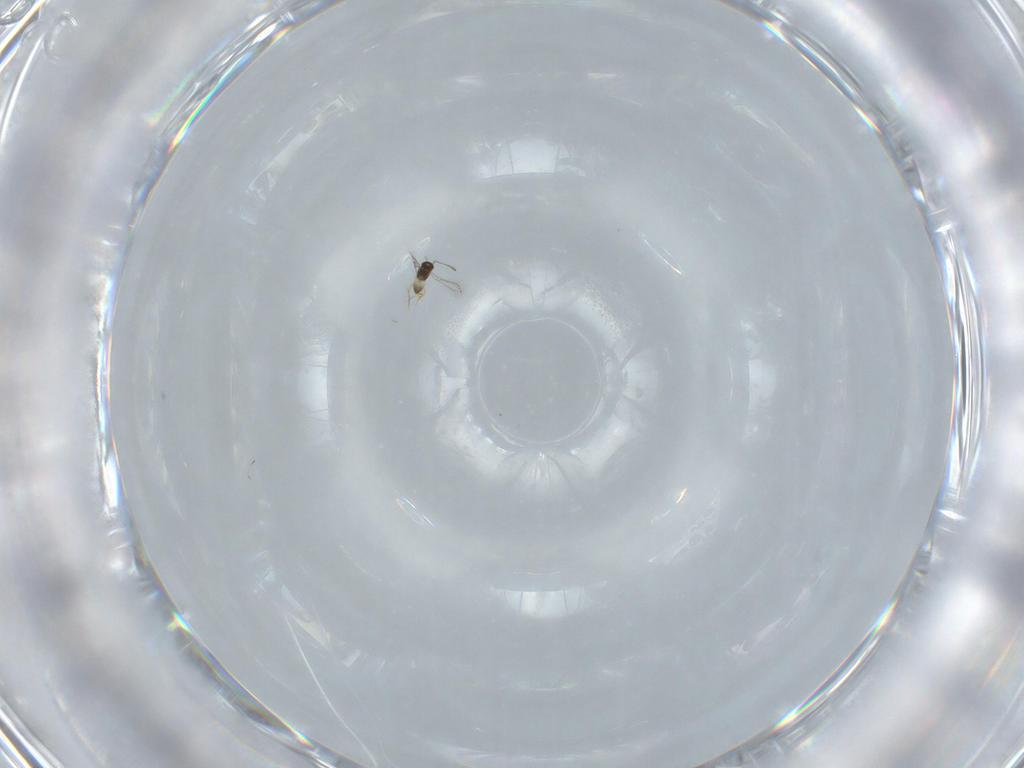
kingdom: Animalia
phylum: Arthropoda
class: Insecta
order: Hymenoptera
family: Mymaridae
